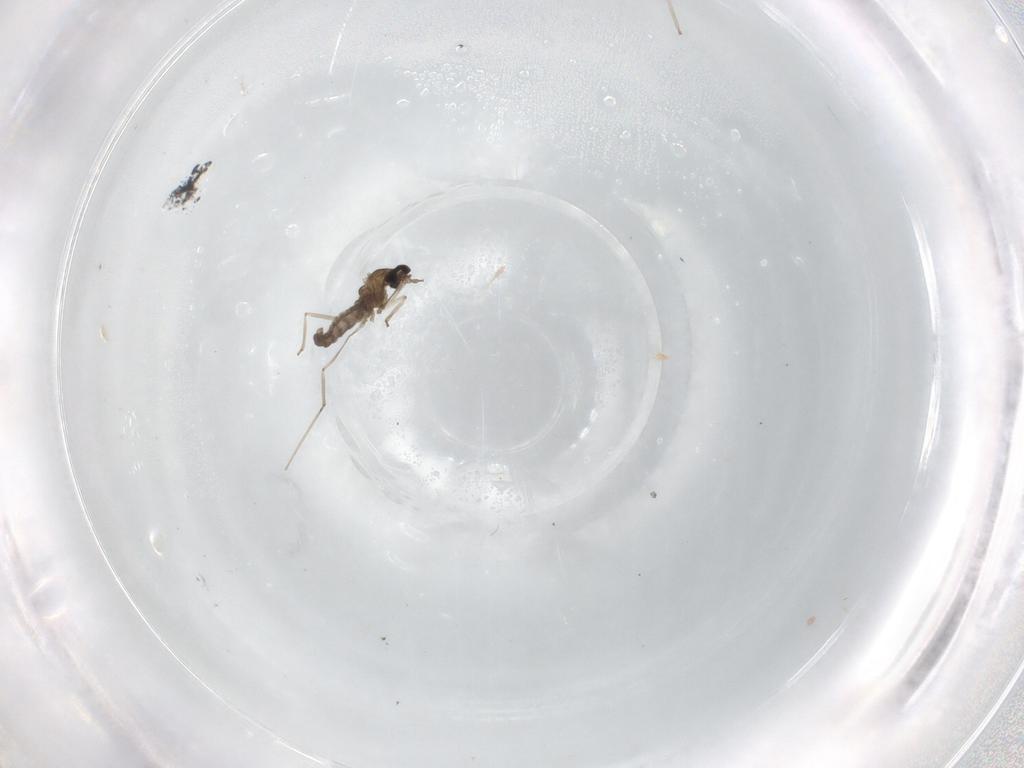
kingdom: Animalia
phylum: Arthropoda
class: Insecta
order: Diptera
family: Cecidomyiidae
